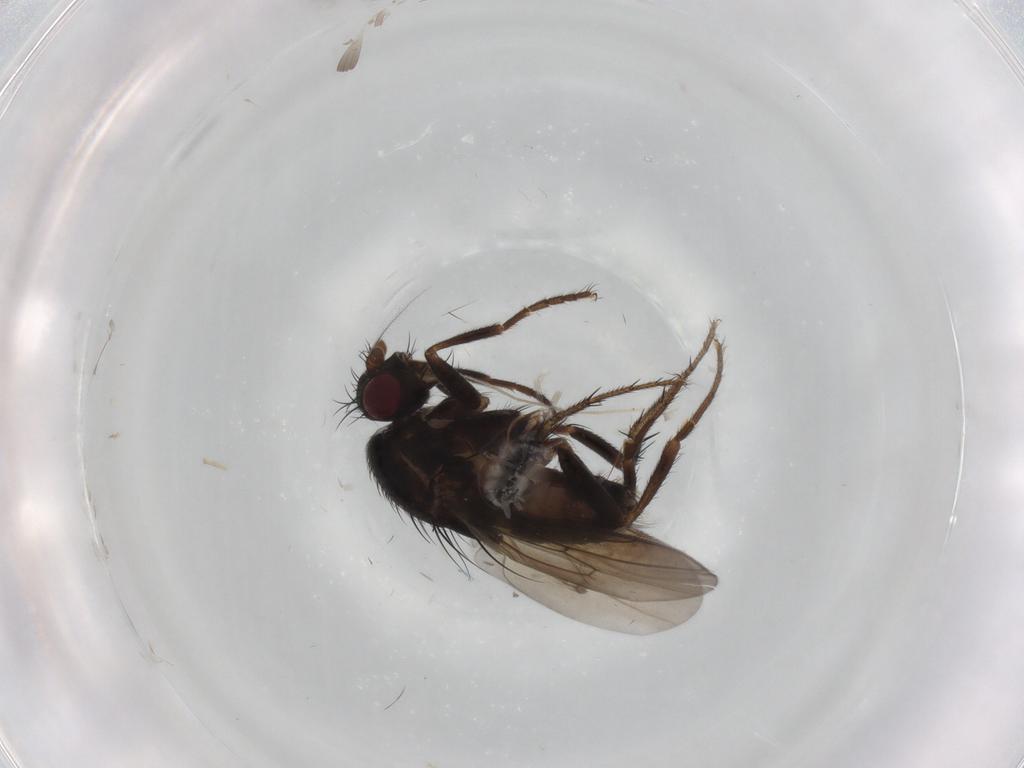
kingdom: Animalia
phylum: Arthropoda
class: Insecta
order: Diptera
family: Sphaeroceridae
